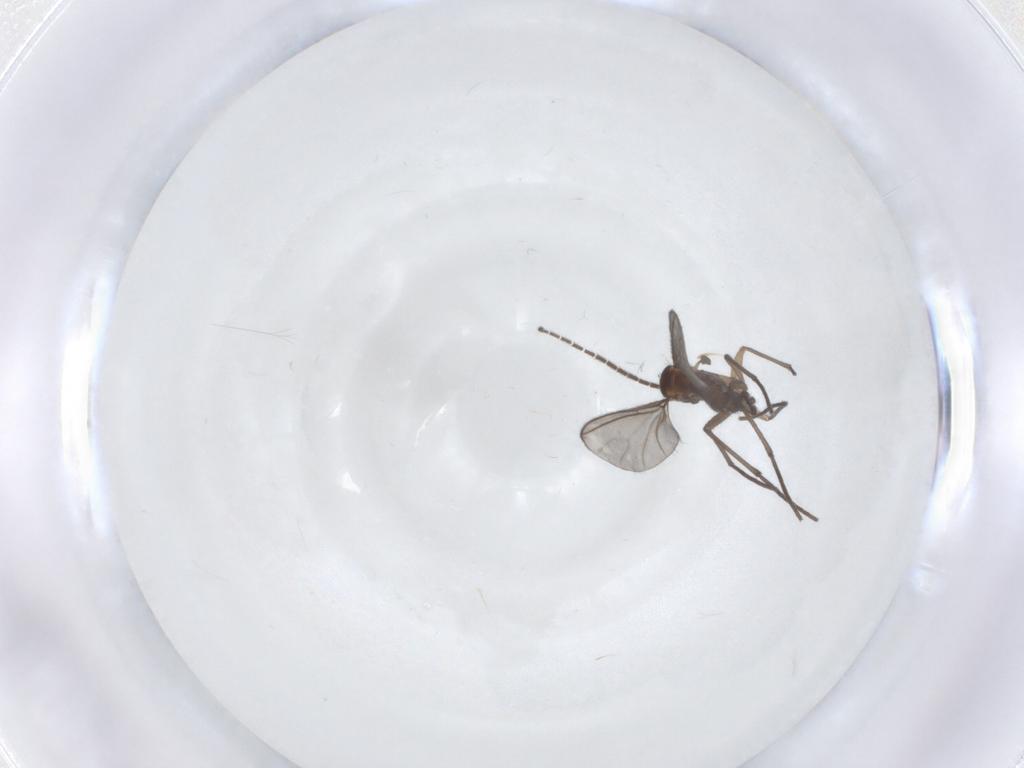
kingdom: Animalia
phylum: Arthropoda
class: Insecta
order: Diptera
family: Sciaridae
